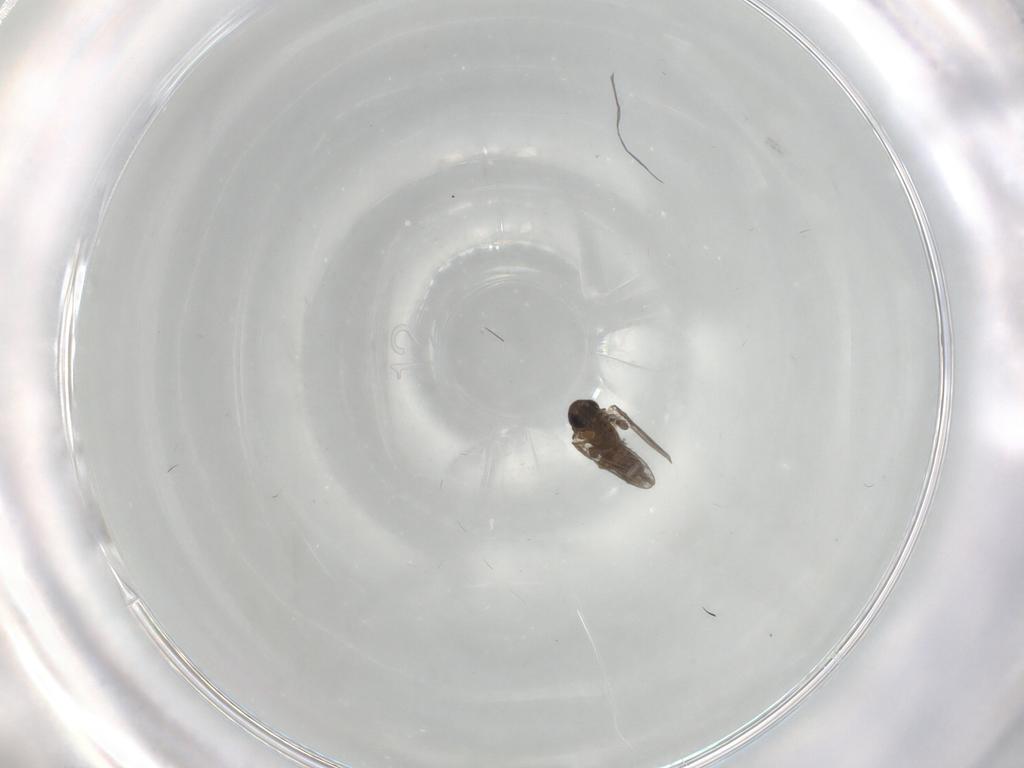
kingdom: Animalia
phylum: Arthropoda
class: Insecta
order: Diptera
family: Cecidomyiidae
